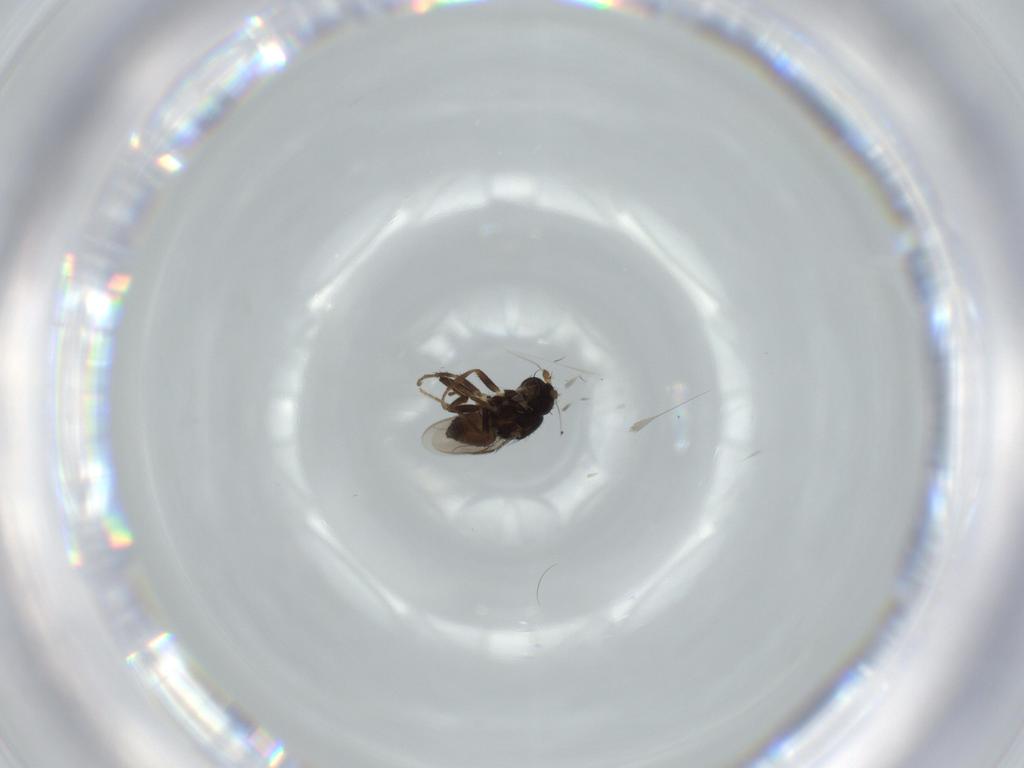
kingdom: Animalia
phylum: Arthropoda
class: Insecta
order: Diptera
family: Sphaeroceridae
